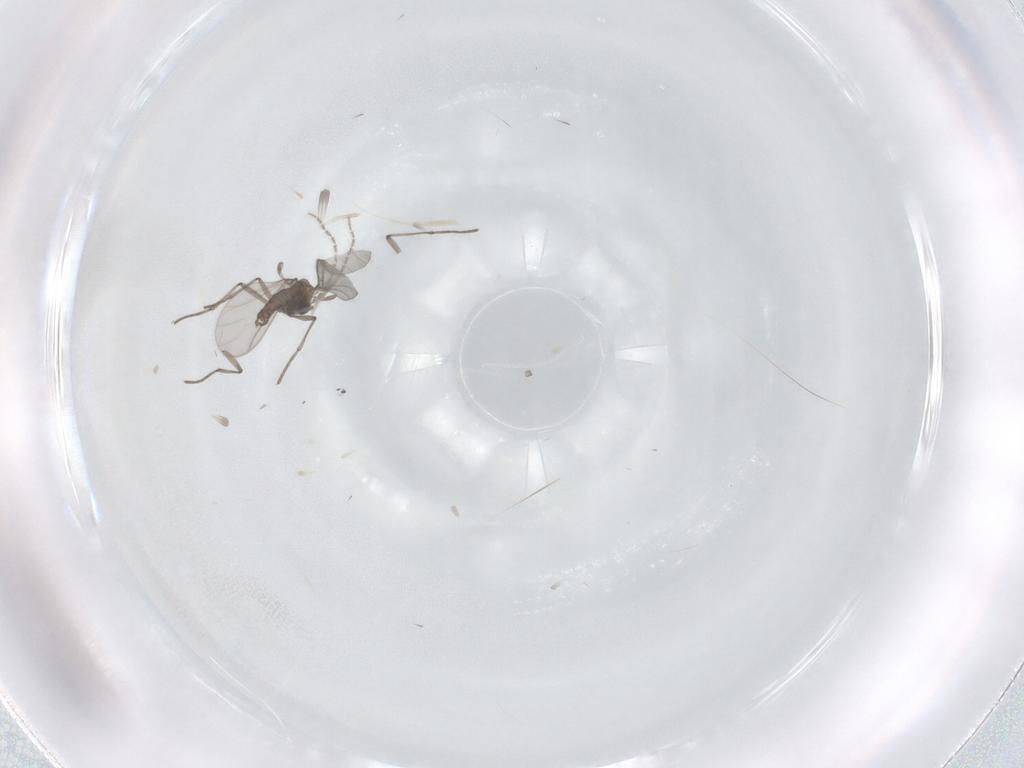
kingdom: Animalia
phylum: Arthropoda
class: Insecta
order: Diptera
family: Sciaridae
